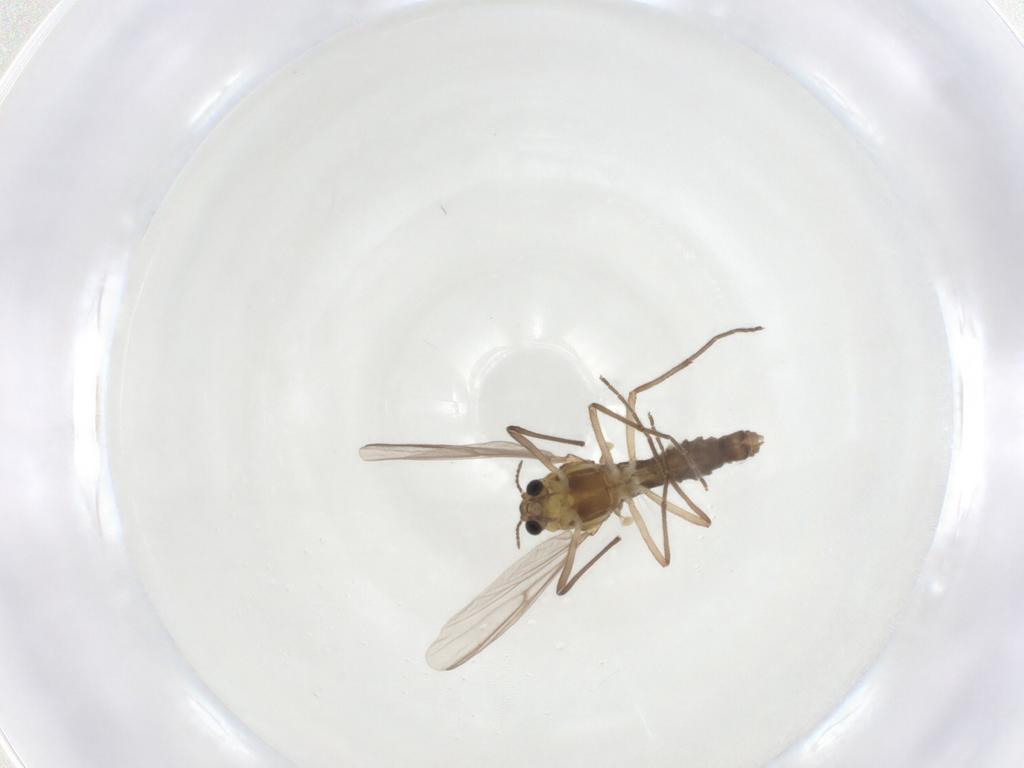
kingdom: Animalia
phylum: Arthropoda
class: Insecta
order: Diptera
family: Chironomidae
